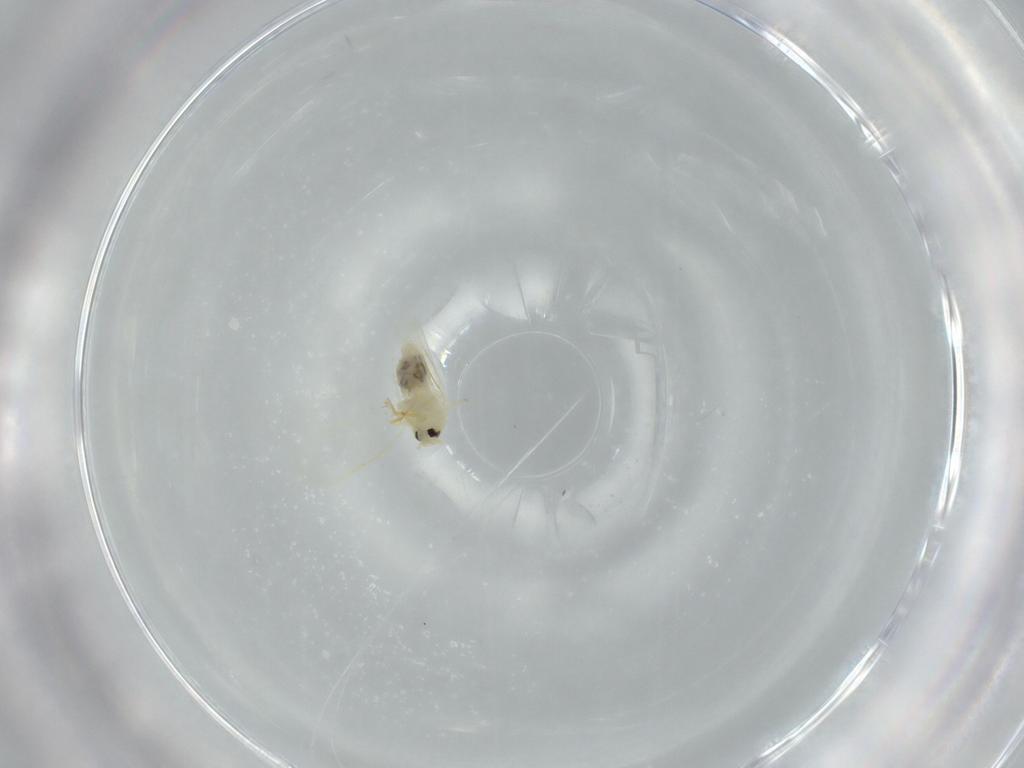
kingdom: Animalia
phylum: Arthropoda
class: Insecta
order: Hemiptera
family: Aleyrodidae
